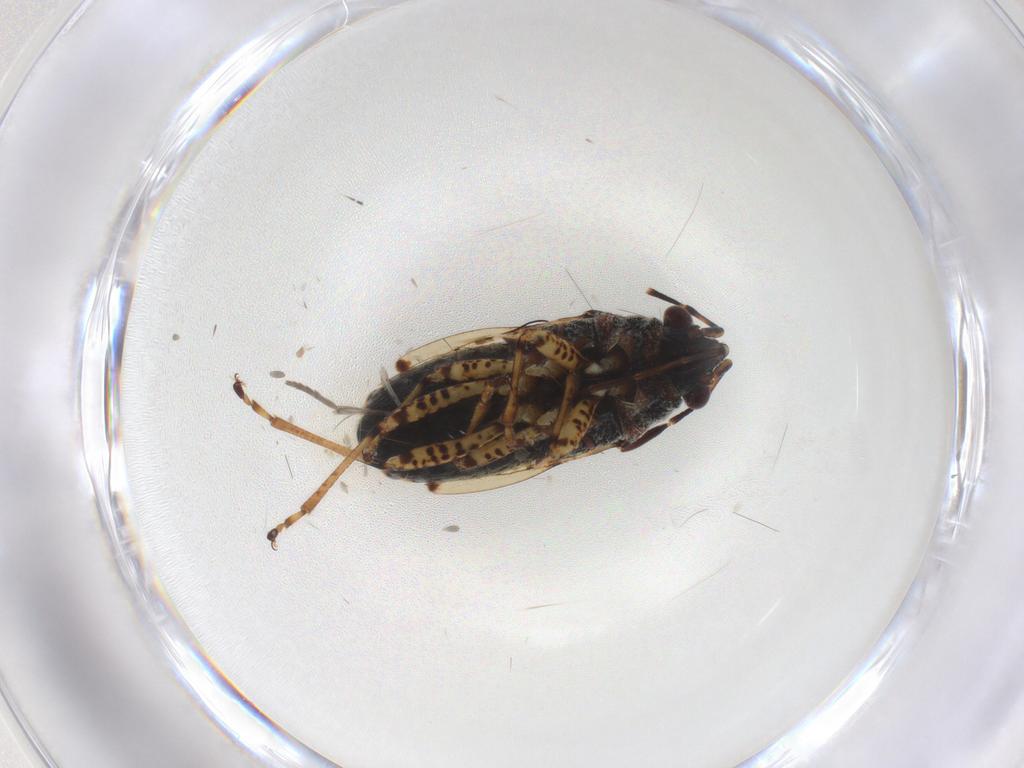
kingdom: Animalia
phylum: Arthropoda
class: Insecta
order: Hemiptera
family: Lygaeidae
